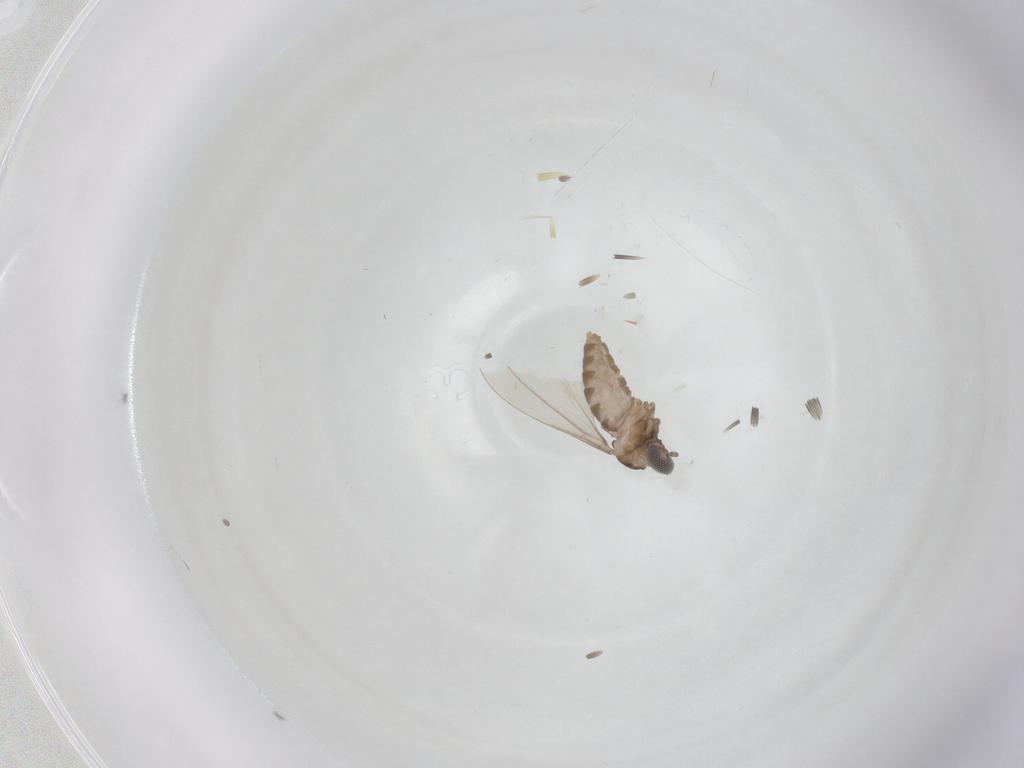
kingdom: Animalia
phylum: Arthropoda
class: Insecta
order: Diptera
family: Cecidomyiidae
